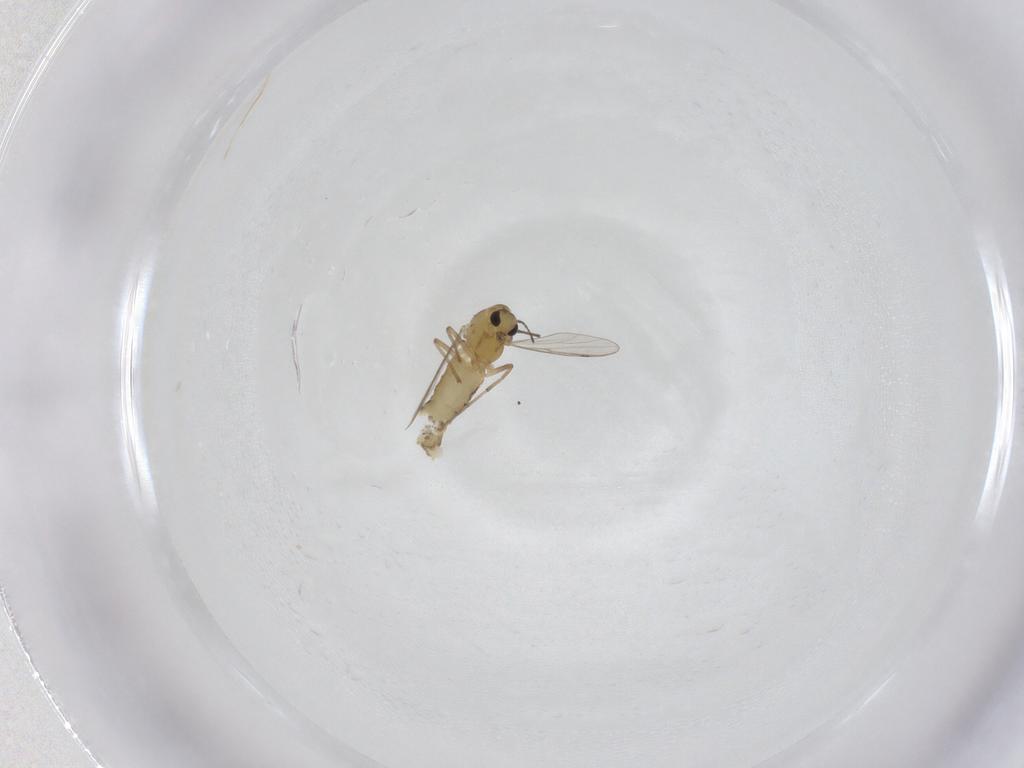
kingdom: Animalia
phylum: Arthropoda
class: Insecta
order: Diptera
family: Chironomidae
